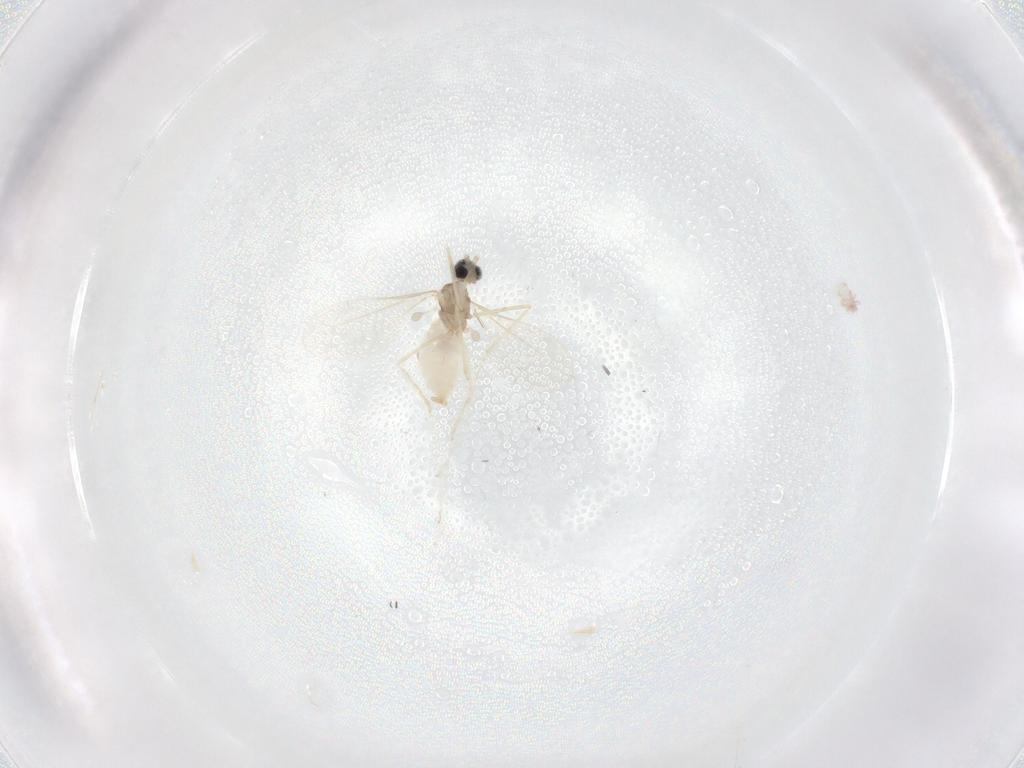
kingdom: Animalia
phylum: Arthropoda
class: Insecta
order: Diptera
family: Cecidomyiidae
